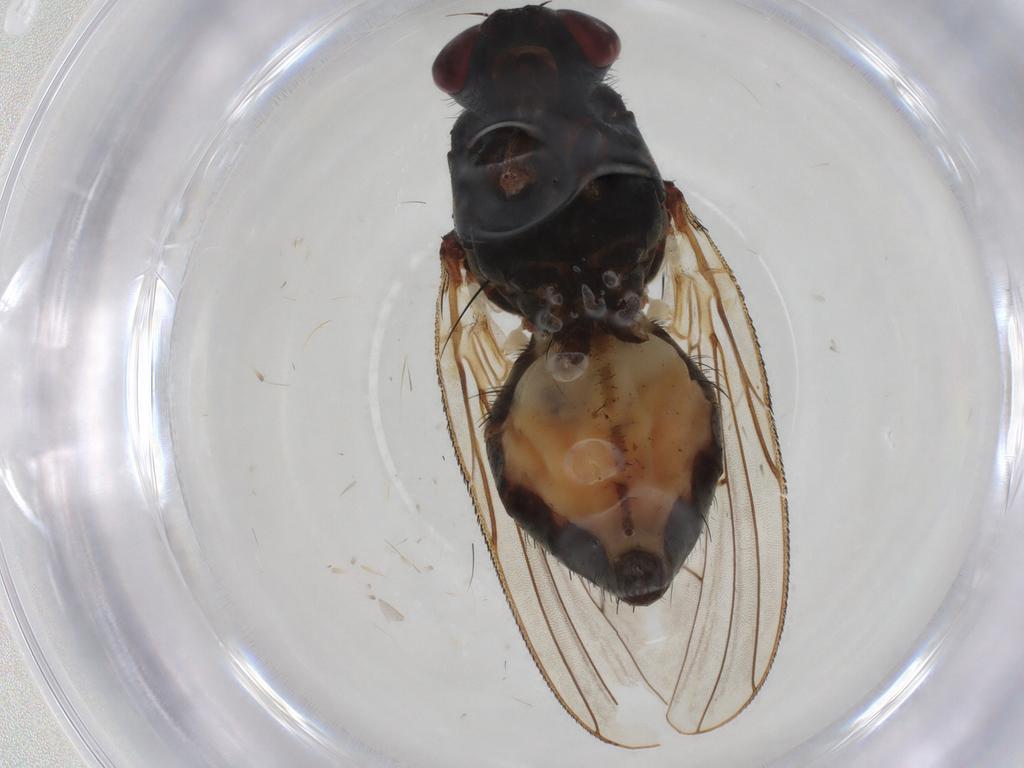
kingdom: Animalia
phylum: Arthropoda
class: Insecta
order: Diptera
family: Anthomyiidae
